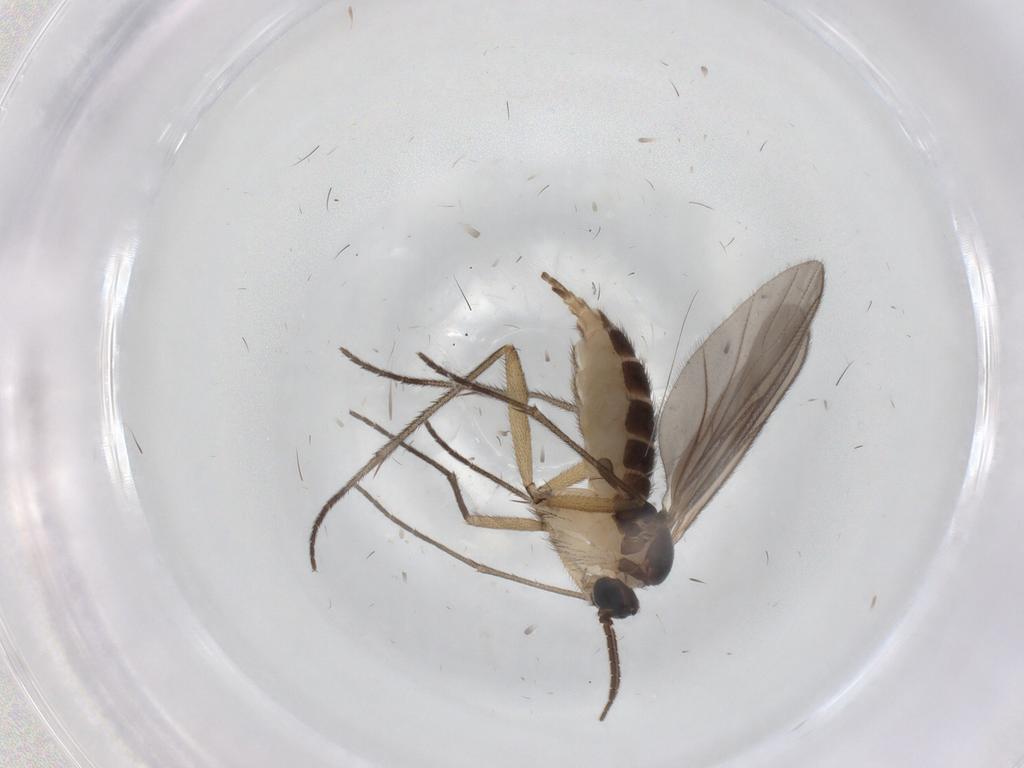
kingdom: Animalia
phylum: Arthropoda
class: Insecta
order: Diptera
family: Sciaridae
